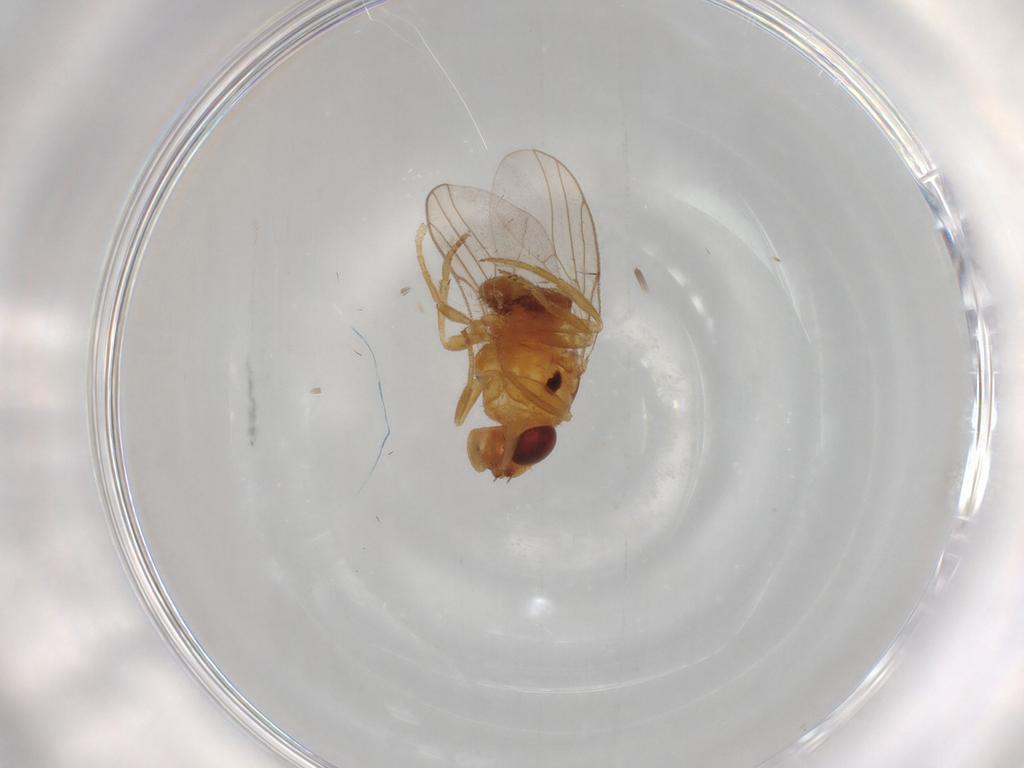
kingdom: Animalia
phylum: Arthropoda
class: Insecta
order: Diptera
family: Chloropidae
